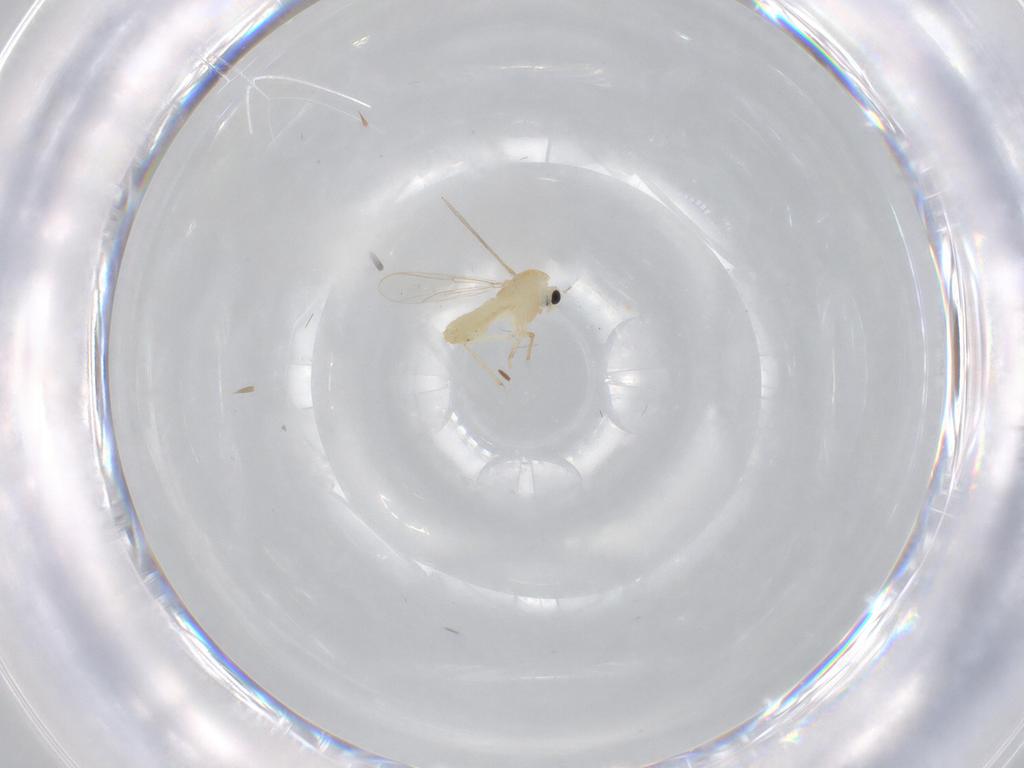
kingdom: Animalia
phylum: Arthropoda
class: Insecta
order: Diptera
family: Chironomidae
